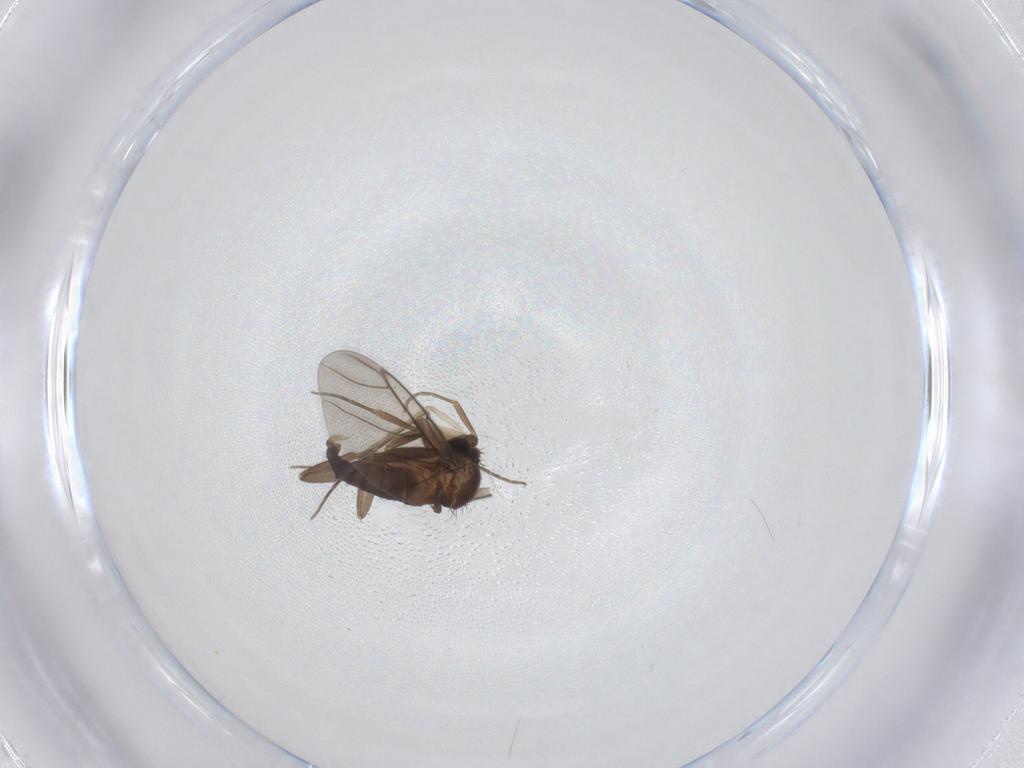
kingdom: Animalia
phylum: Arthropoda
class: Insecta
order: Diptera
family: Phoridae
